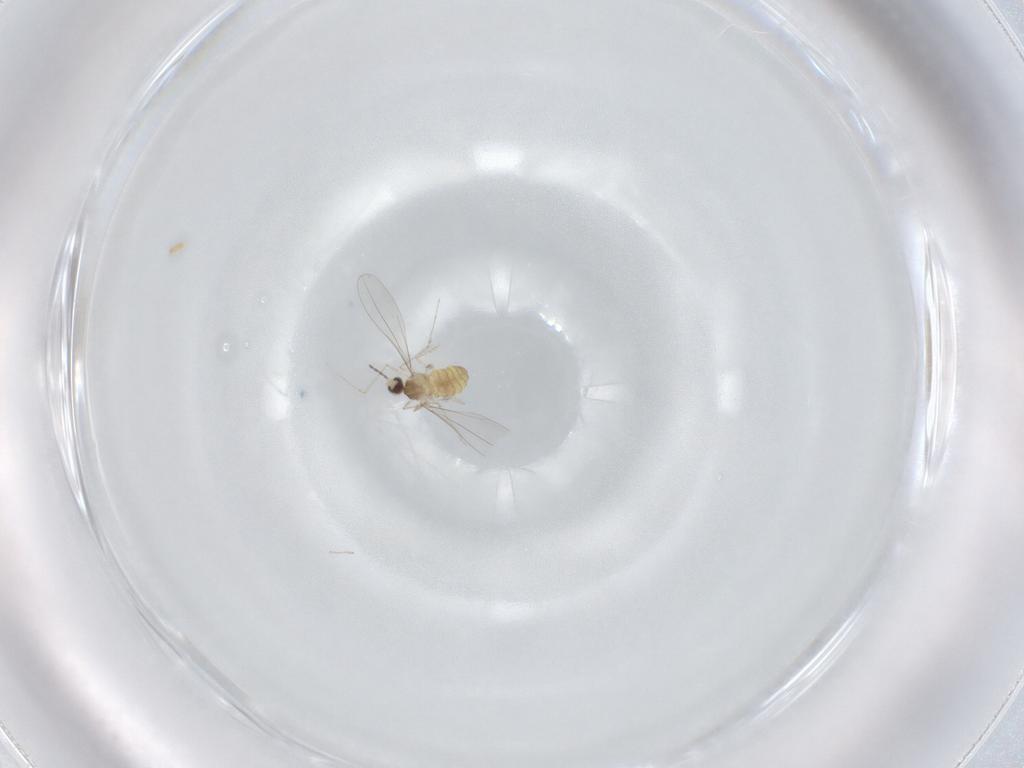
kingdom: Animalia
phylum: Arthropoda
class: Insecta
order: Diptera
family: Cecidomyiidae
